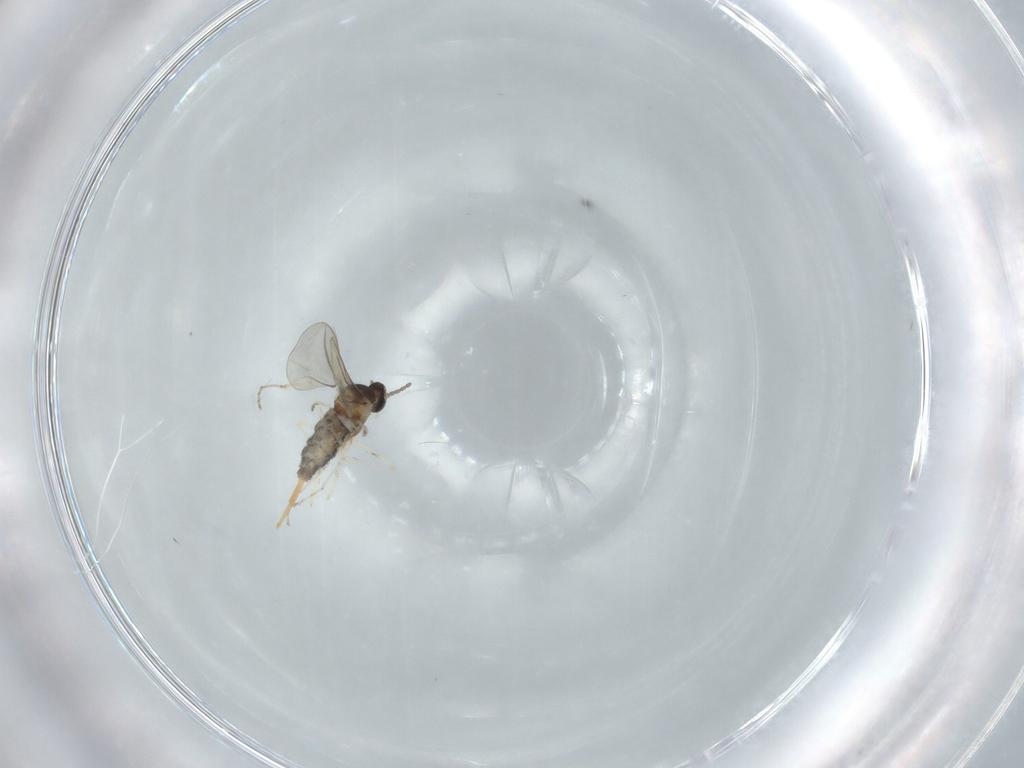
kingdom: Animalia
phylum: Arthropoda
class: Insecta
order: Diptera
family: Cecidomyiidae
